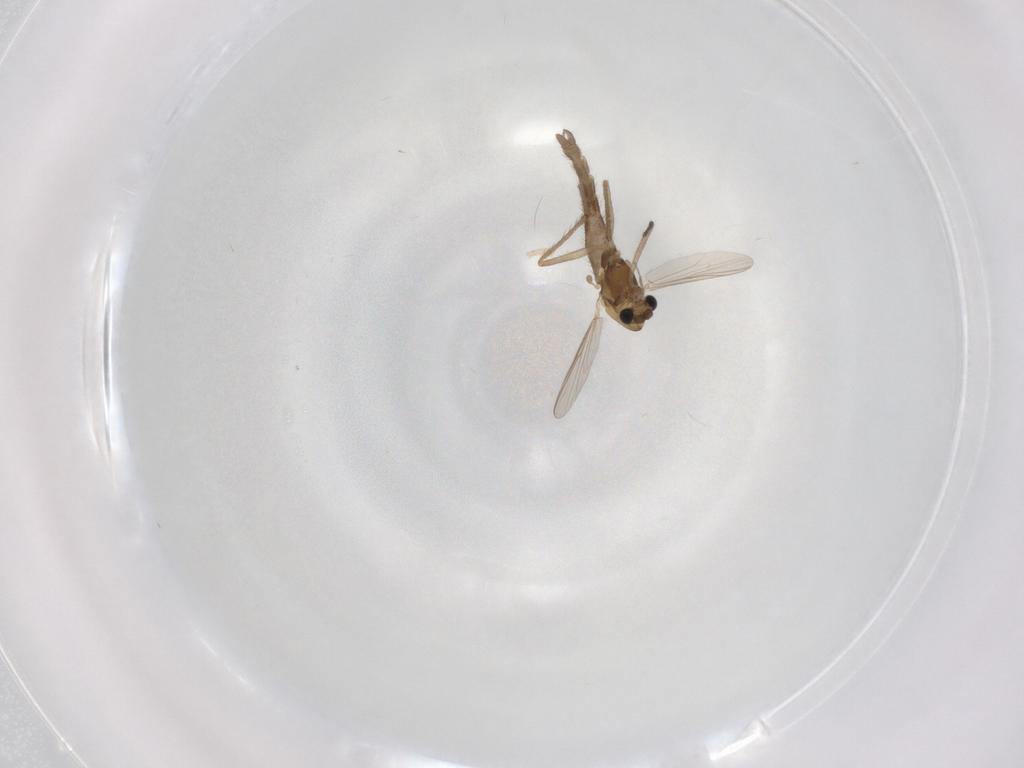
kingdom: Animalia
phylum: Arthropoda
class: Insecta
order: Diptera
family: Chironomidae
